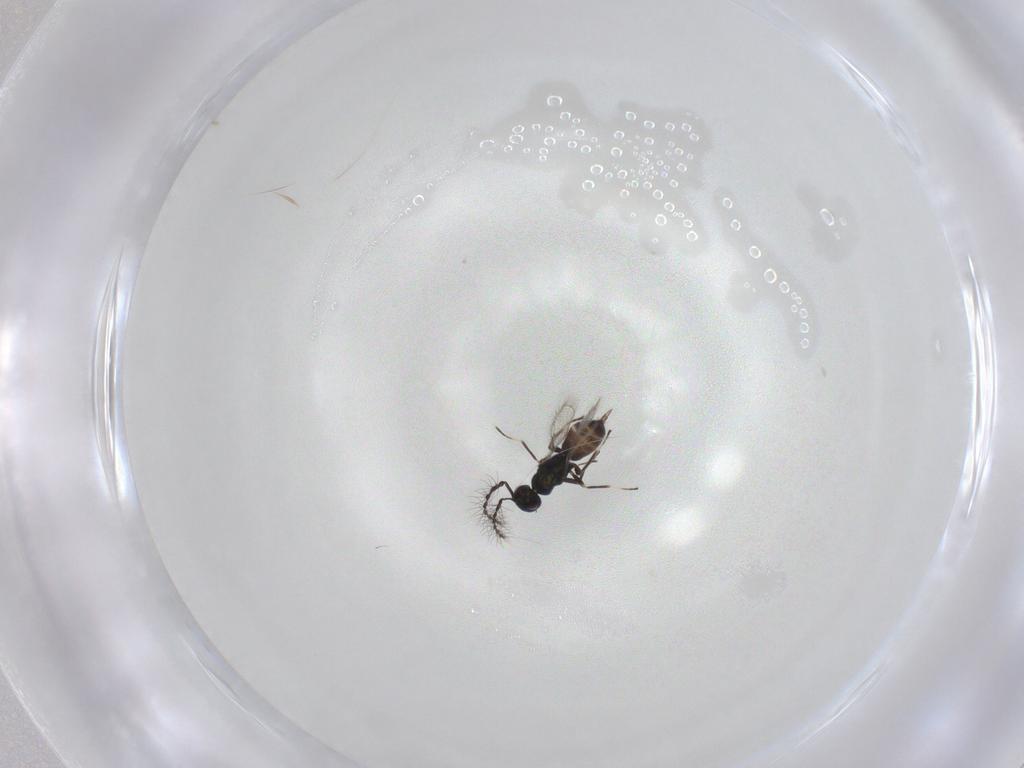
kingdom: Animalia
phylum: Arthropoda
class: Insecta
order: Hymenoptera
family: Eulophidae
